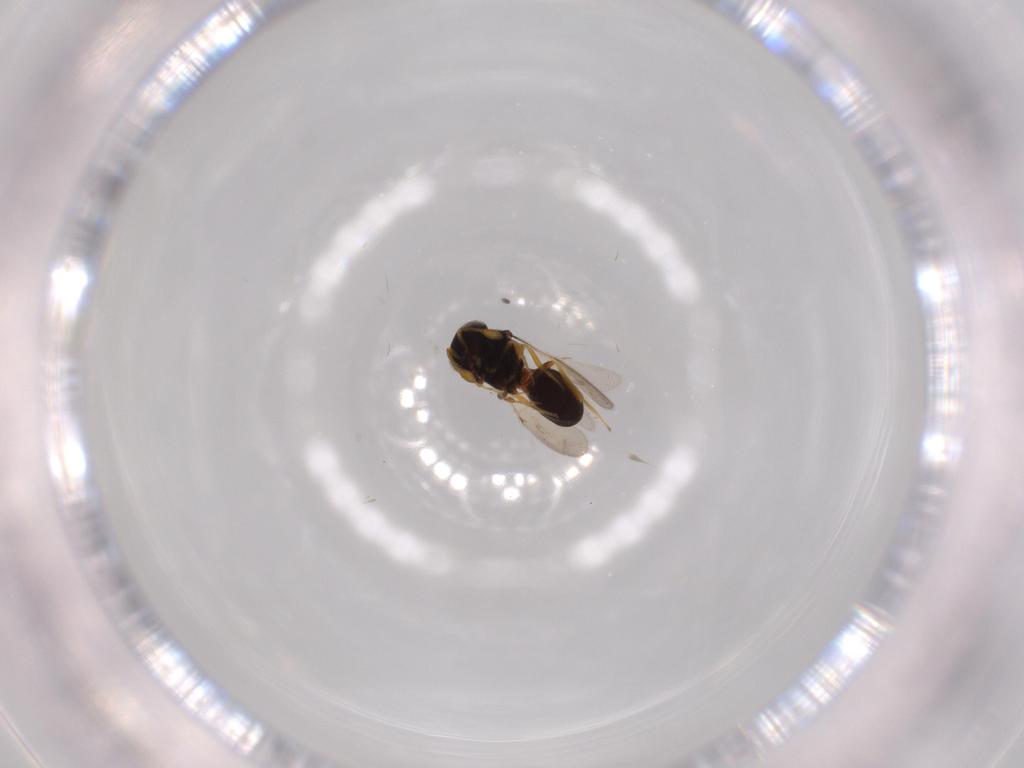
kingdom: Animalia
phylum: Arthropoda
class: Insecta
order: Hymenoptera
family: Scelionidae
